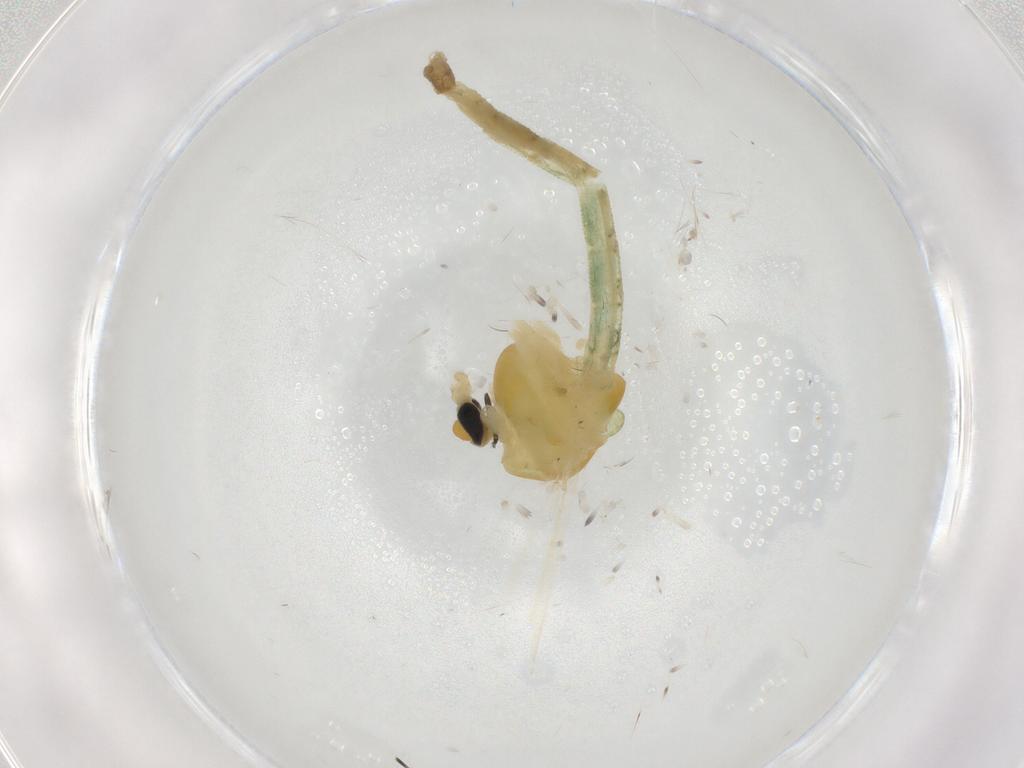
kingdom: Animalia
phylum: Arthropoda
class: Insecta
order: Diptera
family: Chironomidae
